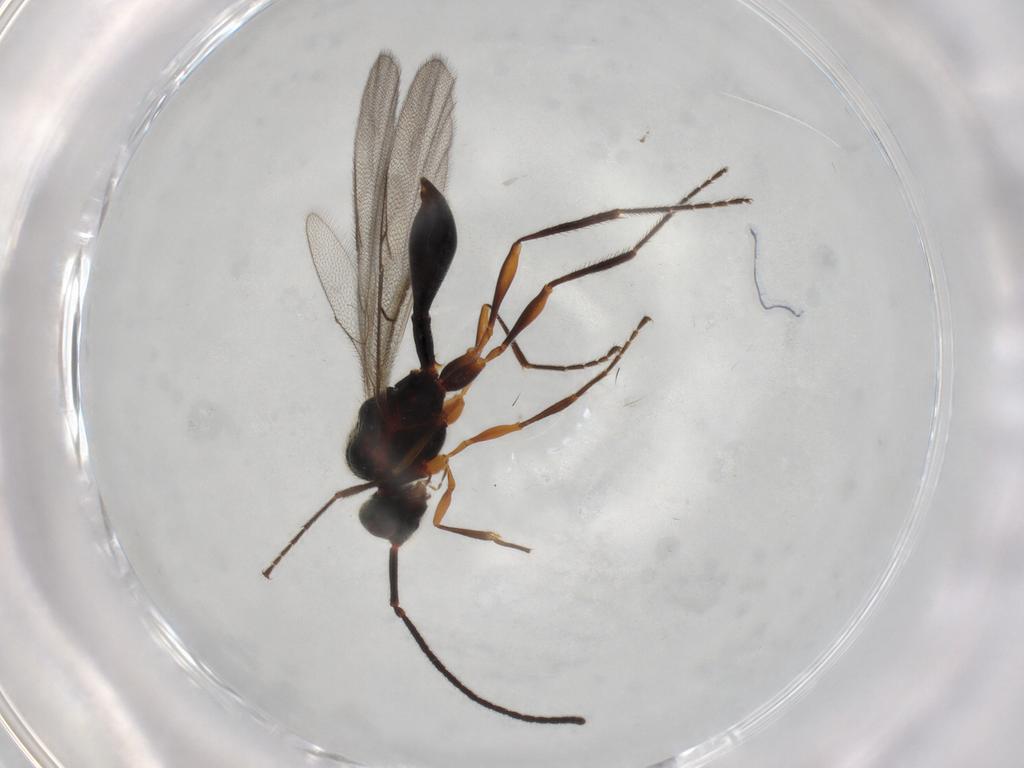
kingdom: Animalia
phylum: Arthropoda
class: Insecta
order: Hymenoptera
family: Diapriidae
